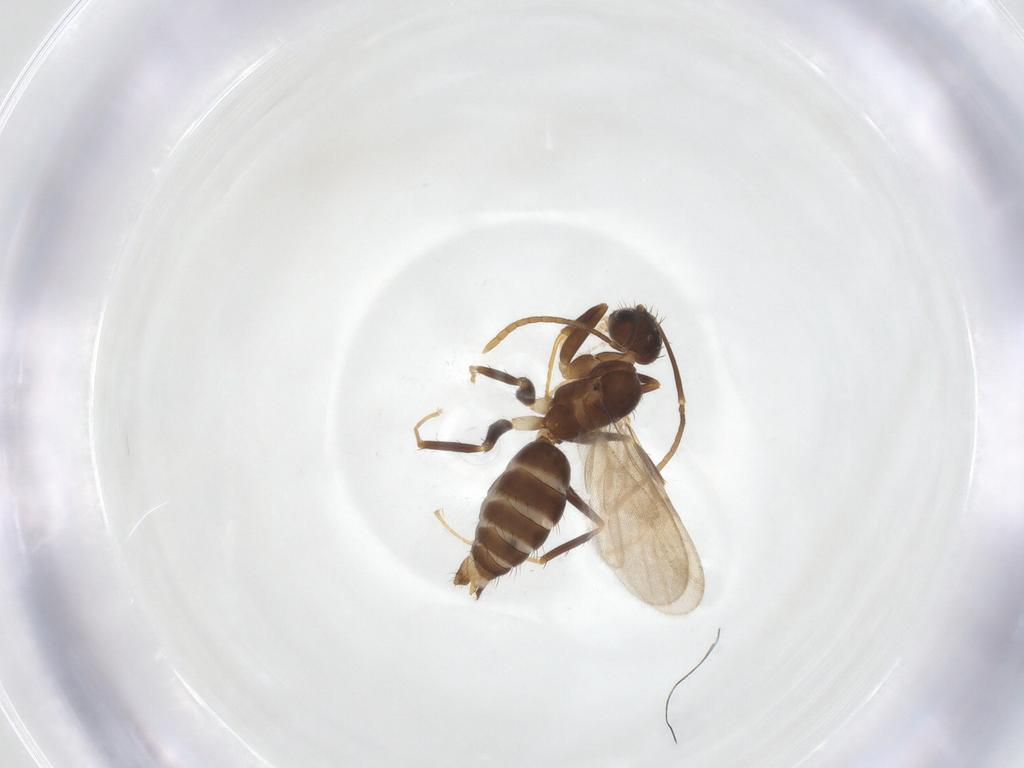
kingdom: Animalia
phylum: Arthropoda
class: Insecta
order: Hymenoptera
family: Formicidae
